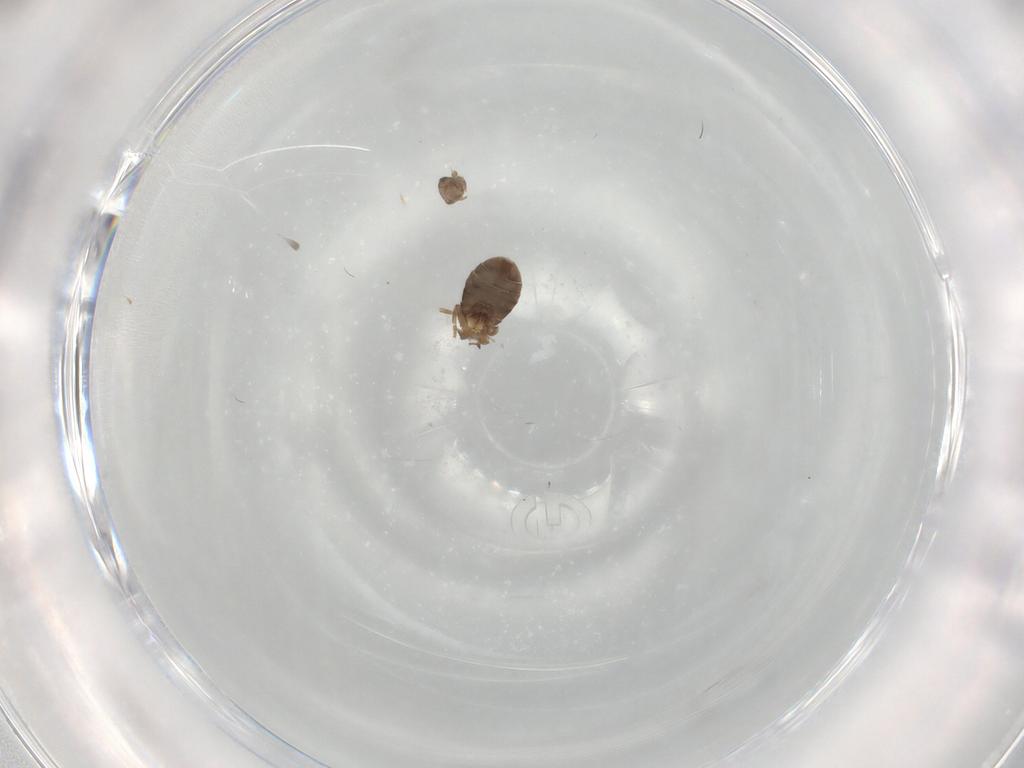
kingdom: Animalia
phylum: Arthropoda
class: Insecta
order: Diptera
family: Cecidomyiidae
